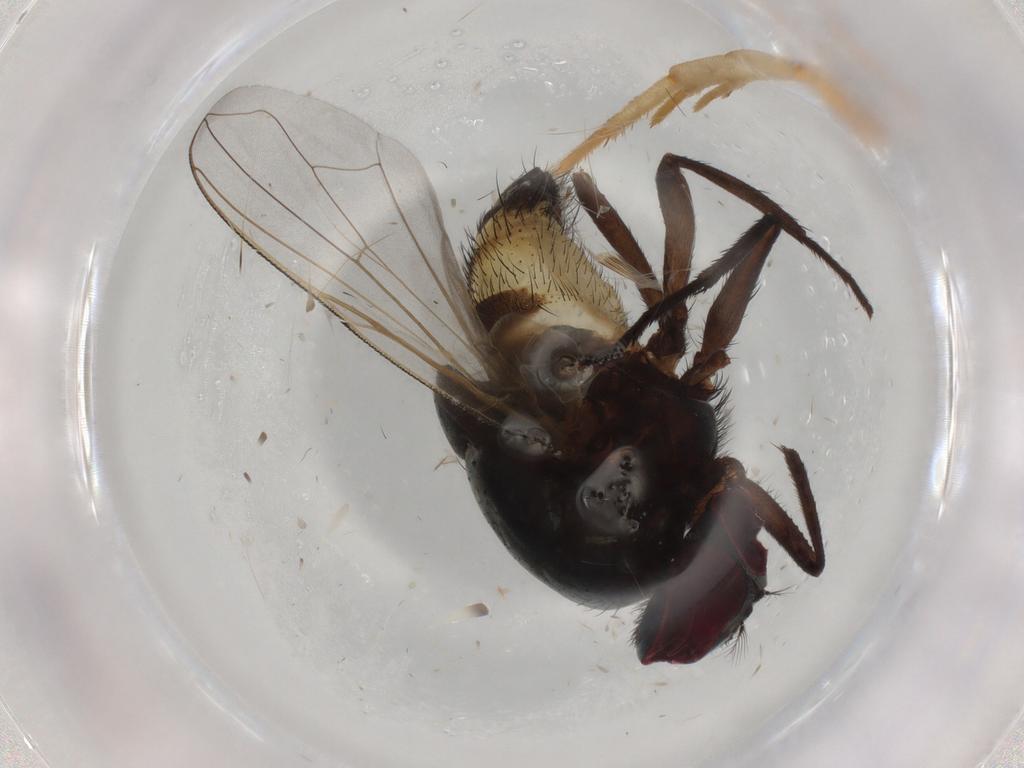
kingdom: Animalia
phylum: Arthropoda
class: Insecta
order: Diptera
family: Muscidae
